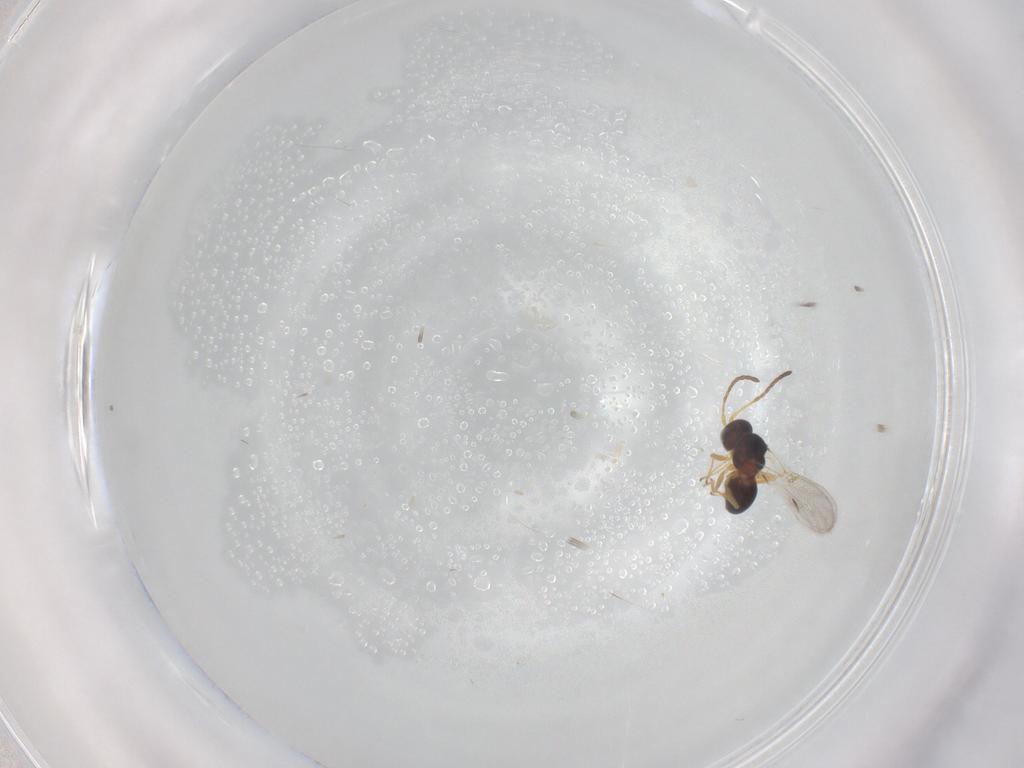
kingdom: Animalia
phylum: Arthropoda
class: Insecta
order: Hymenoptera
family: Figitidae
